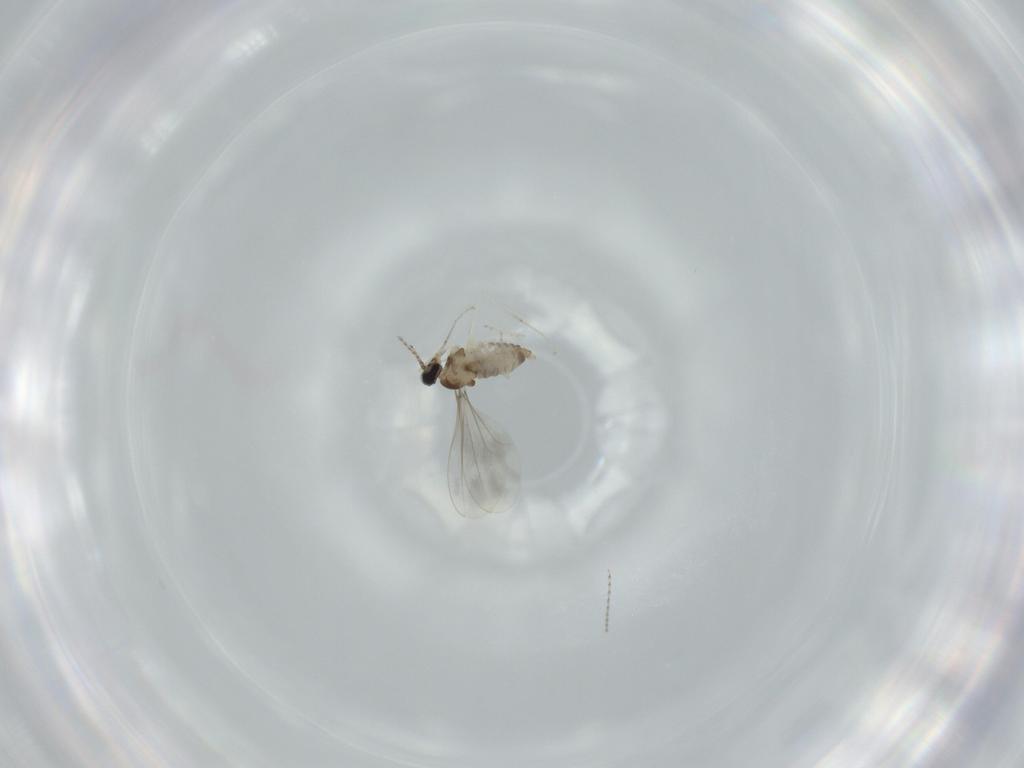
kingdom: Animalia
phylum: Arthropoda
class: Insecta
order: Diptera
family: Cecidomyiidae
